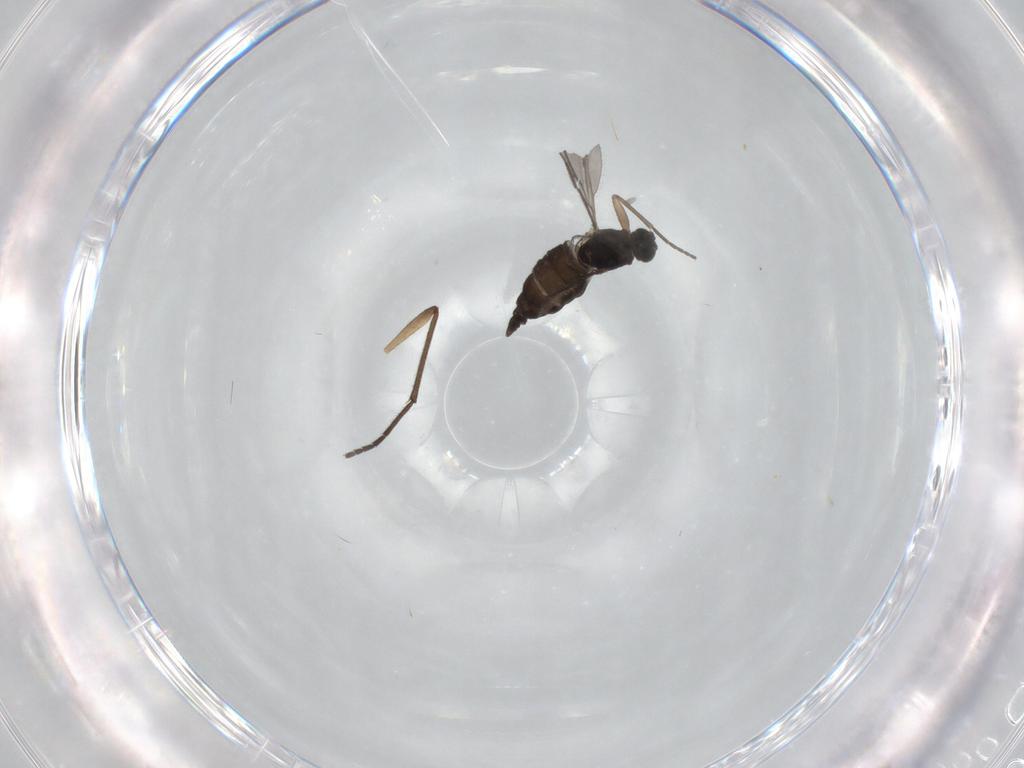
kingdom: Animalia
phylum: Arthropoda
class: Insecta
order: Diptera
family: Sciaridae
